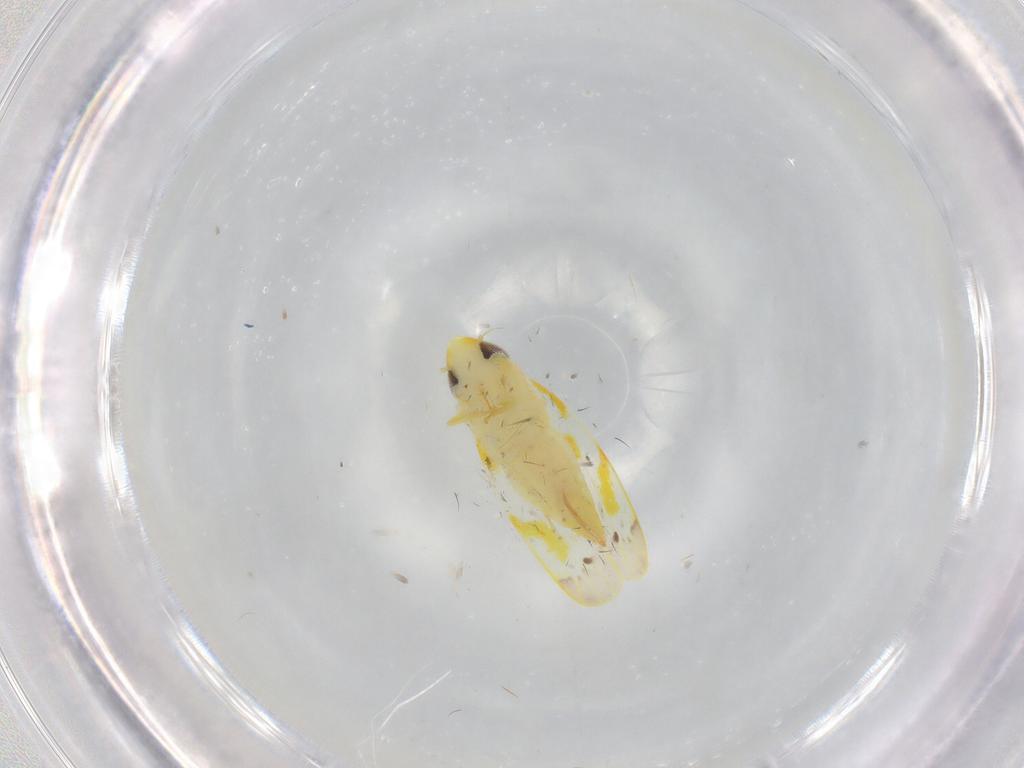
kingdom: Animalia
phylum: Arthropoda
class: Insecta
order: Hemiptera
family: Cicadellidae
